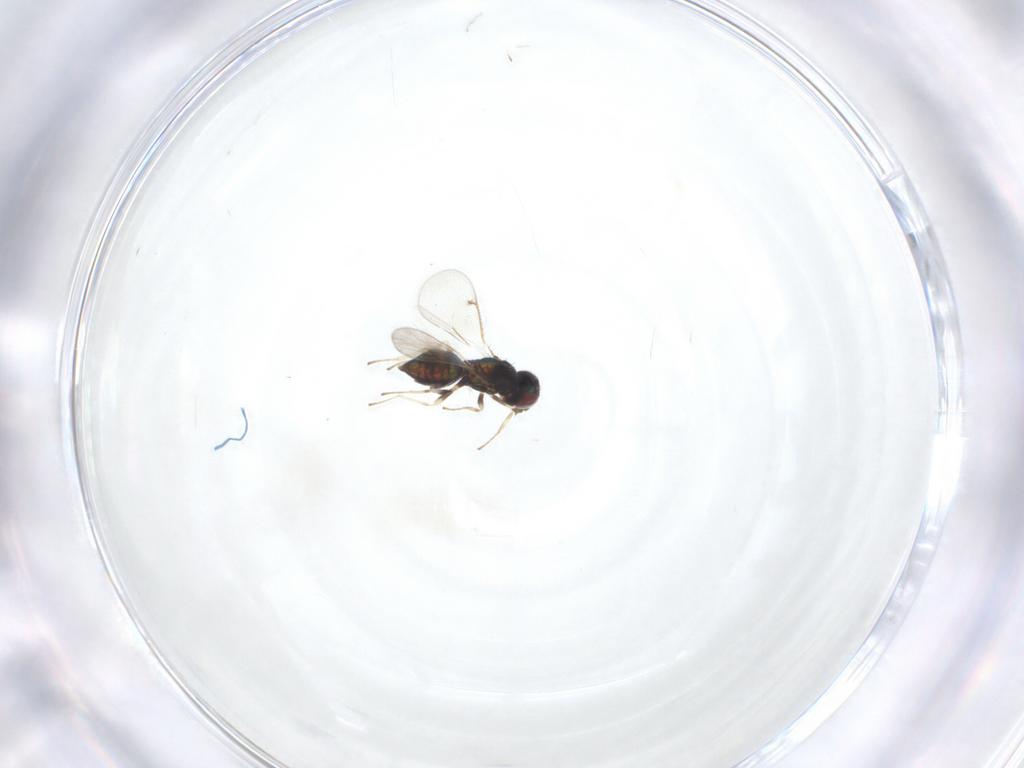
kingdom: Animalia
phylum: Arthropoda
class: Insecta
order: Hymenoptera
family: Eulophidae
